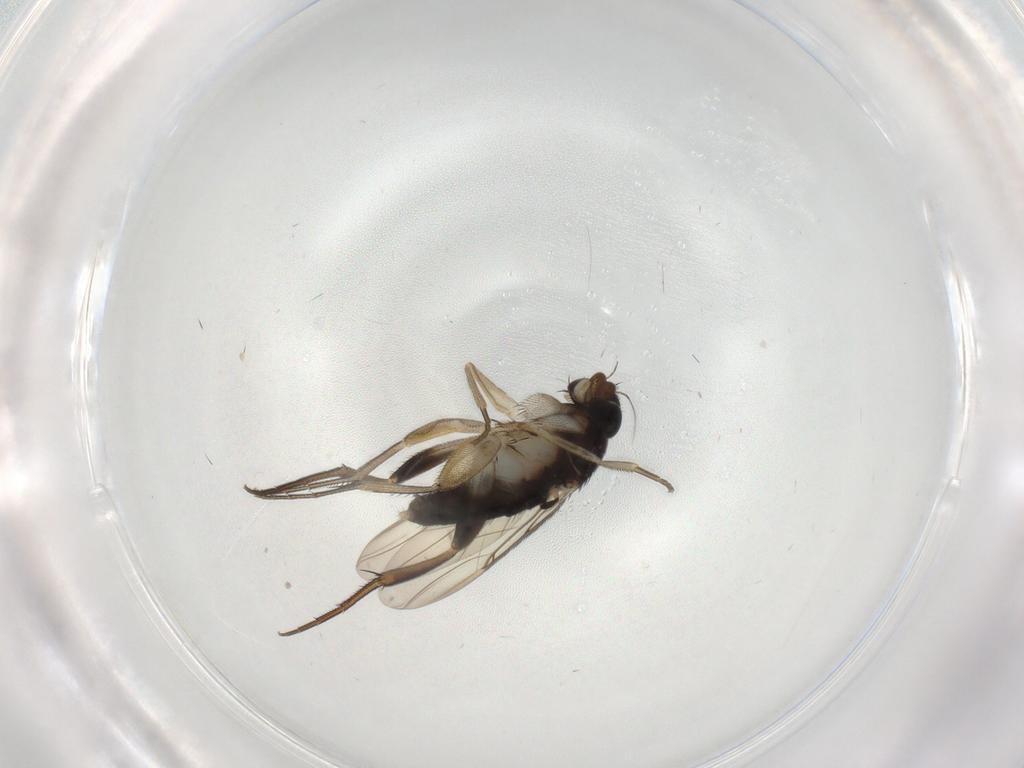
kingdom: Animalia
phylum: Arthropoda
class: Insecta
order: Diptera
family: Phoridae
